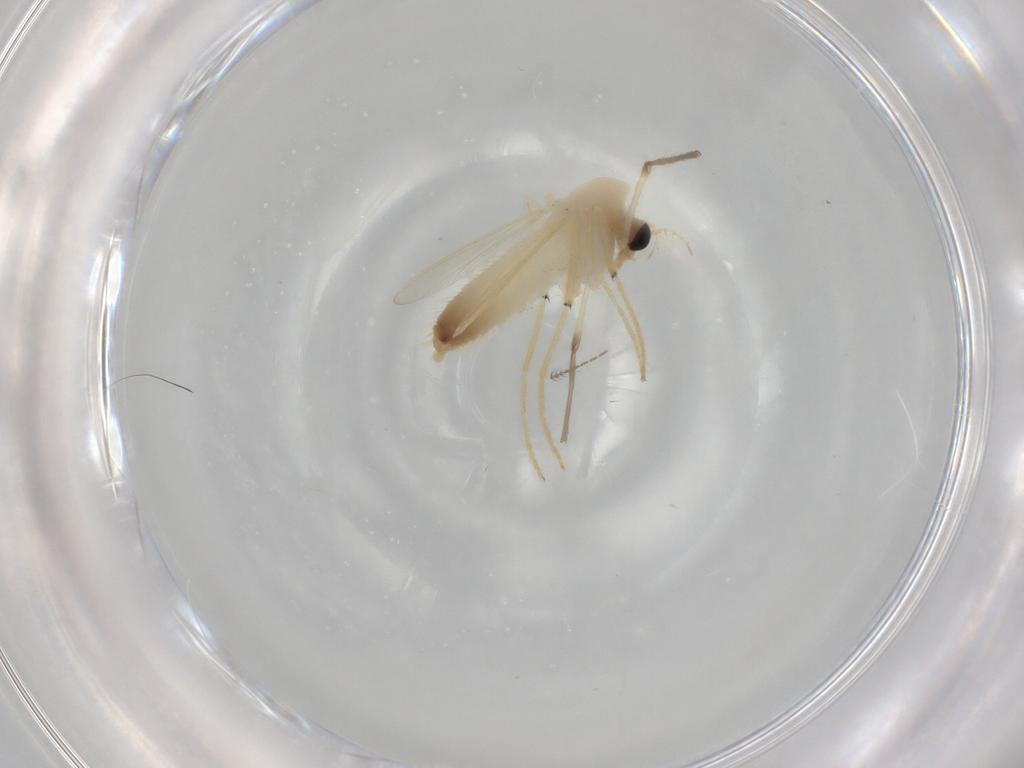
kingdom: Animalia
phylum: Arthropoda
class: Insecta
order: Diptera
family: Chironomidae
